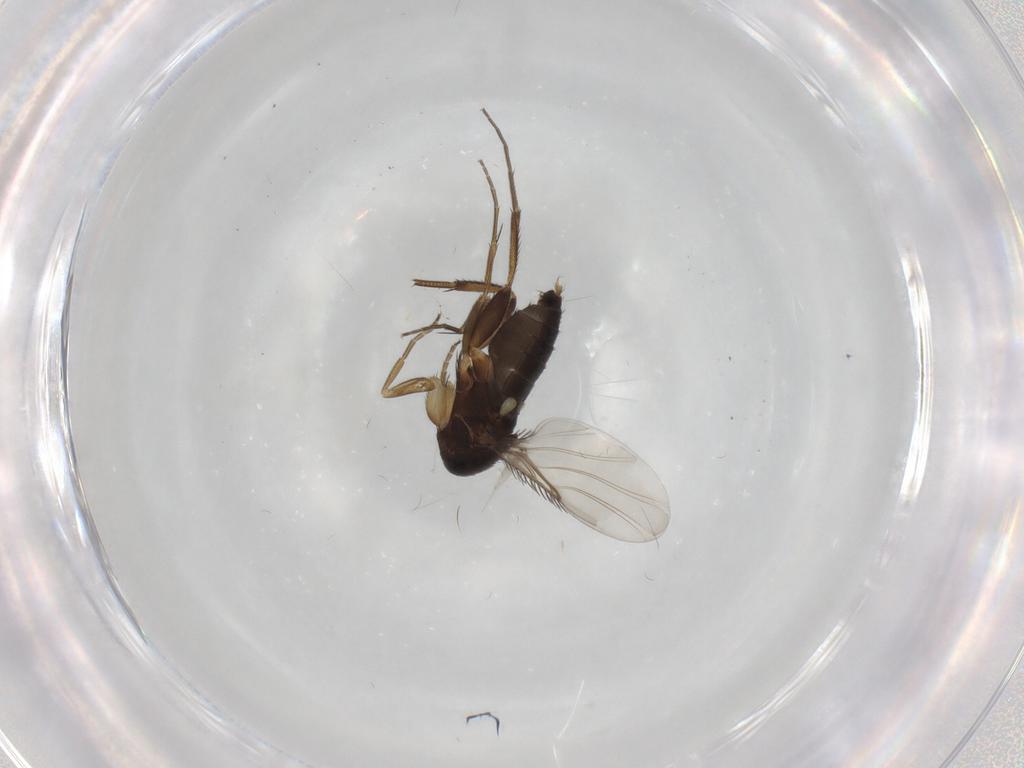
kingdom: Animalia
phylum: Arthropoda
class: Insecta
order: Diptera
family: Phoridae
